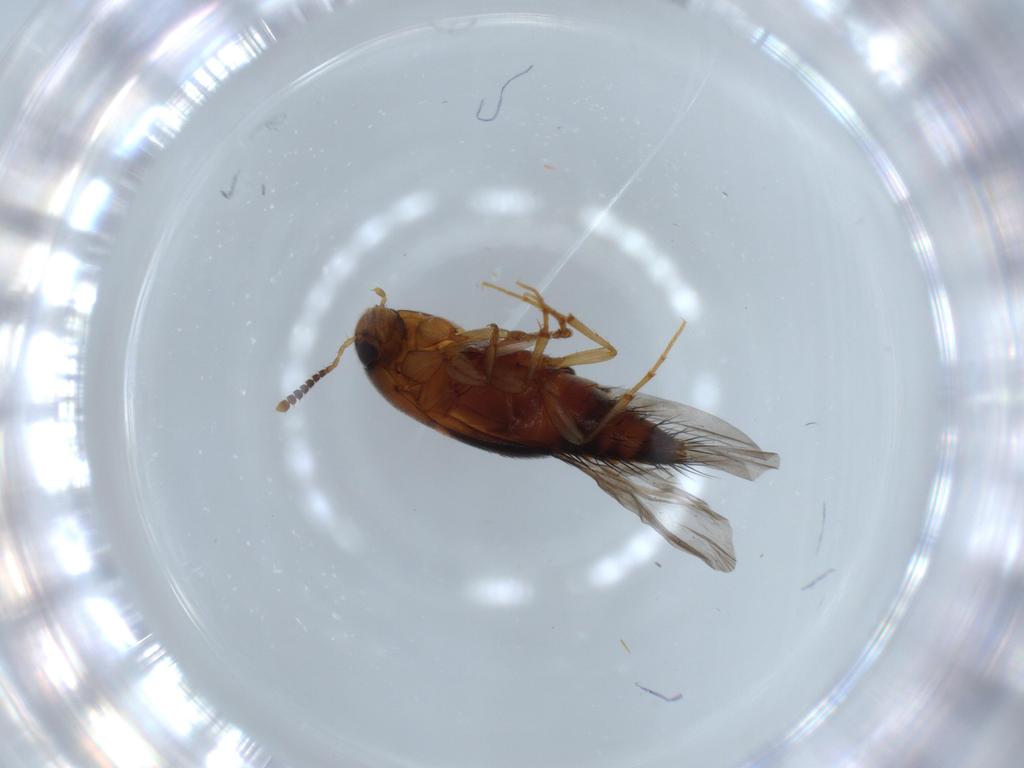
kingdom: Animalia
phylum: Arthropoda
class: Insecta
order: Coleoptera
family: Staphylinidae
